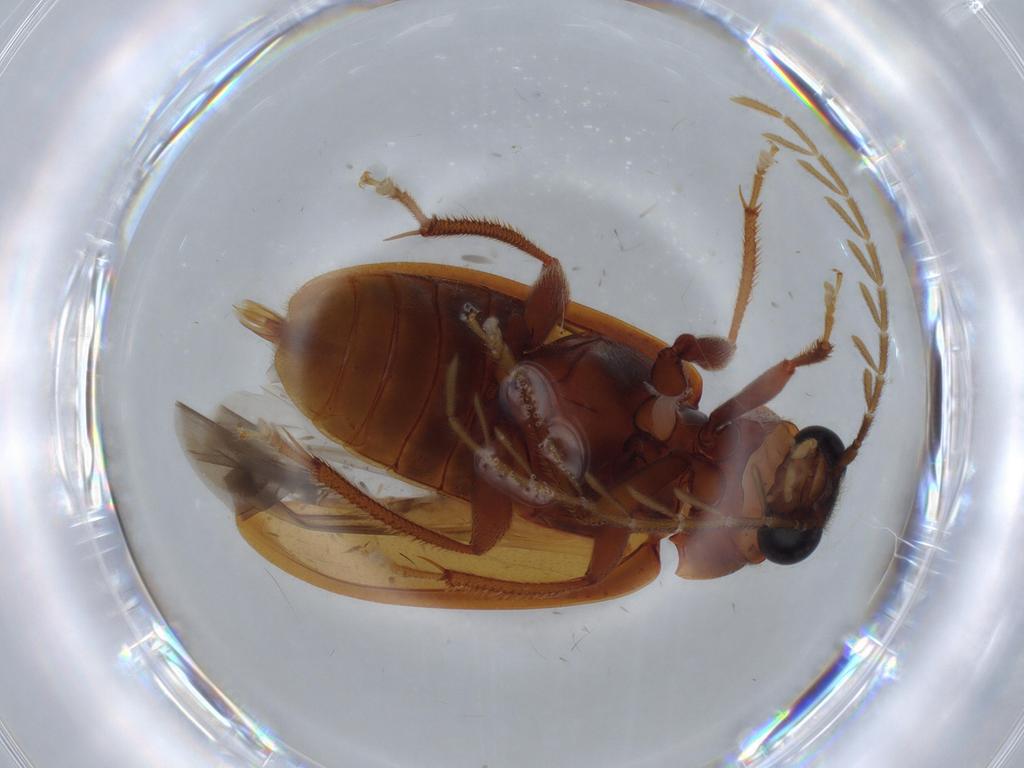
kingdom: Animalia
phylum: Arthropoda
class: Insecta
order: Coleoptera
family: Ptilodactylidae
